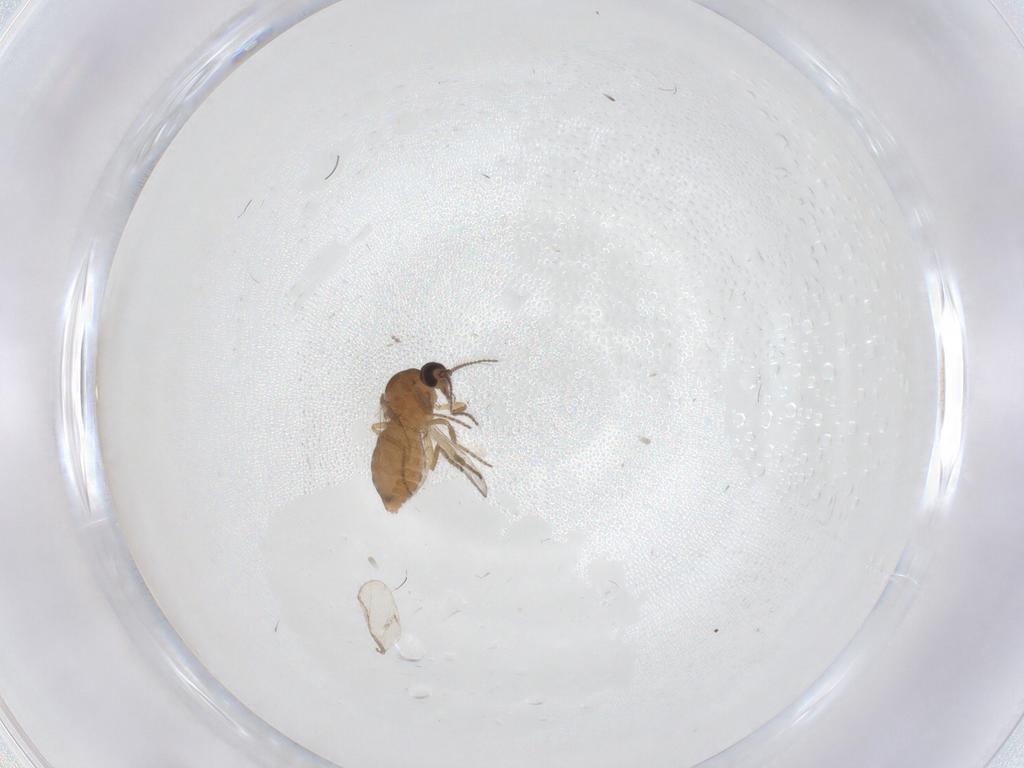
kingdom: Animalia
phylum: Arthropoda
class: Insecta
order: Diptera
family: Ceratopogonidae
